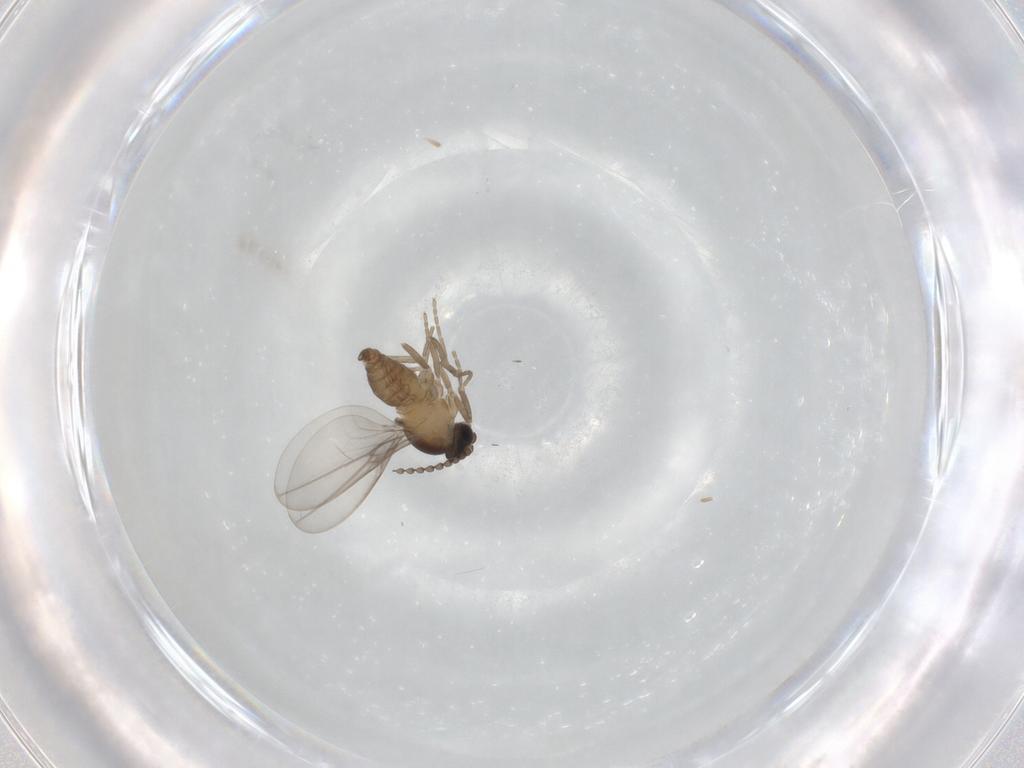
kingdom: Animalia
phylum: Arthropoda
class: Insecta
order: Diptera
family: Cecidomyiidae
